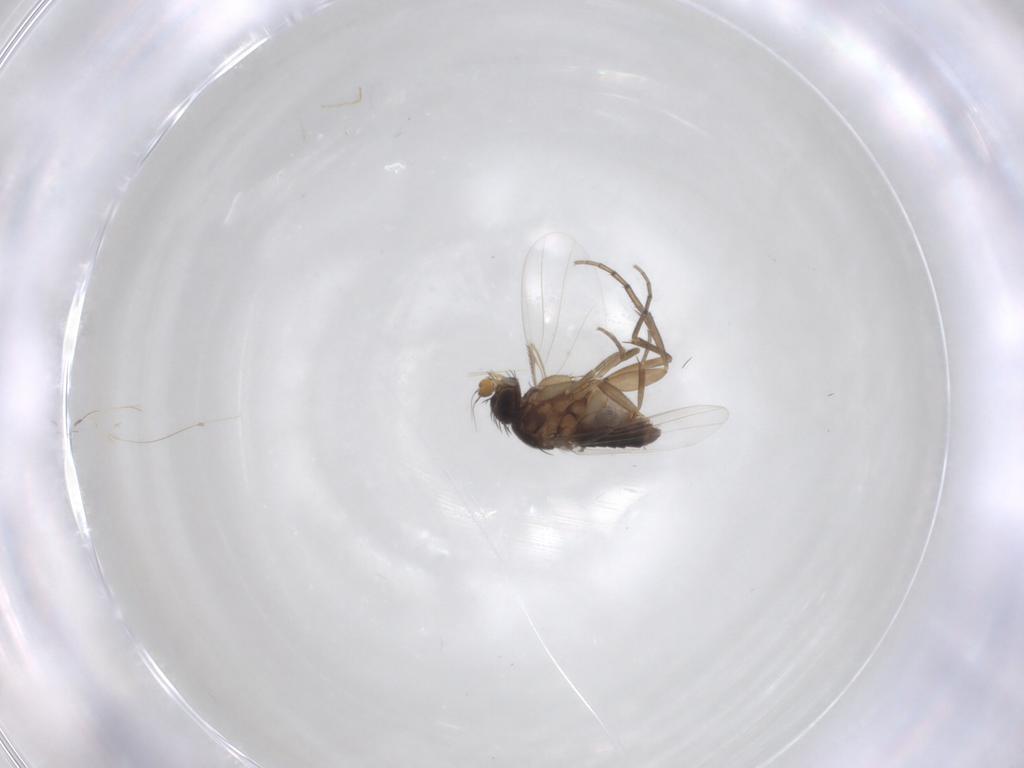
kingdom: Animalia
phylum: Arthropoda
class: Insecta
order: Diptera
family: Phoridae
